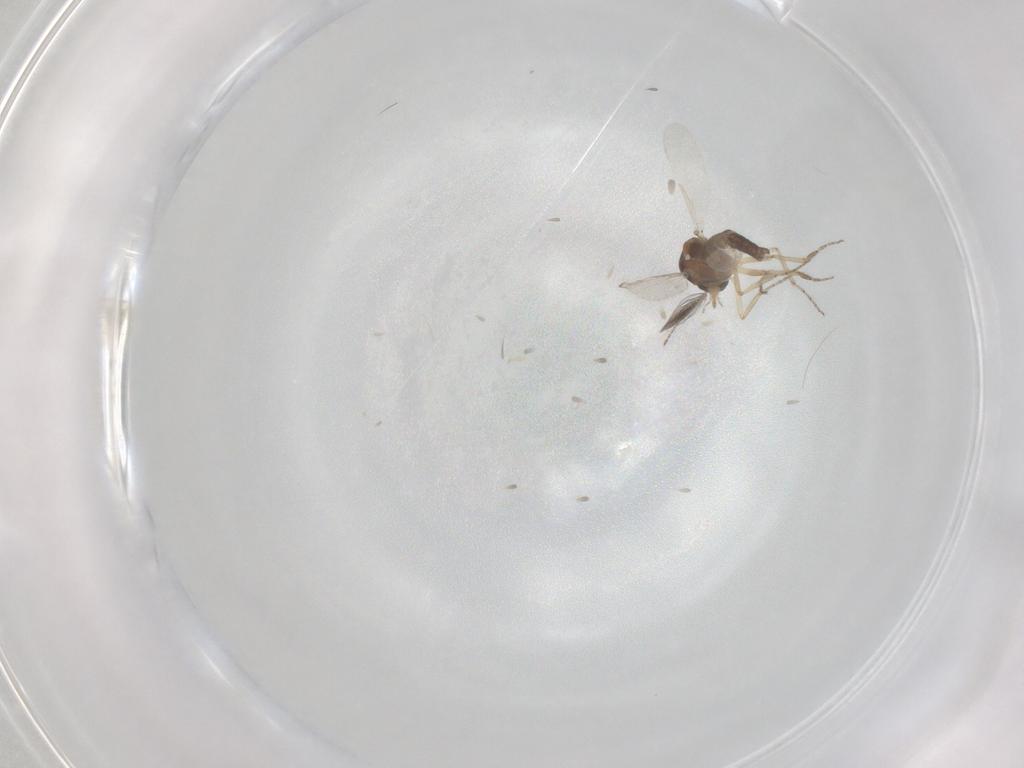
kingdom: Animalia
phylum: Arthropoda
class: Insecta
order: Diptera
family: Ceratopogonidae
